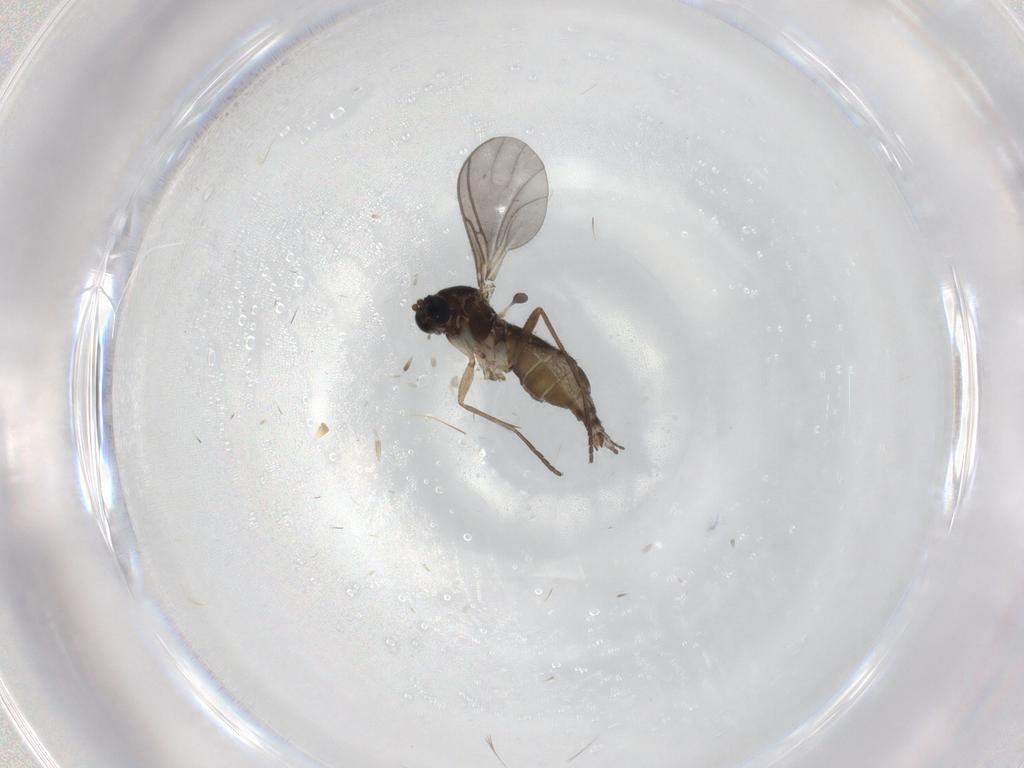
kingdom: Animalia
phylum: Arthropoda
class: Insecta
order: Diptera
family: Sciaridae
